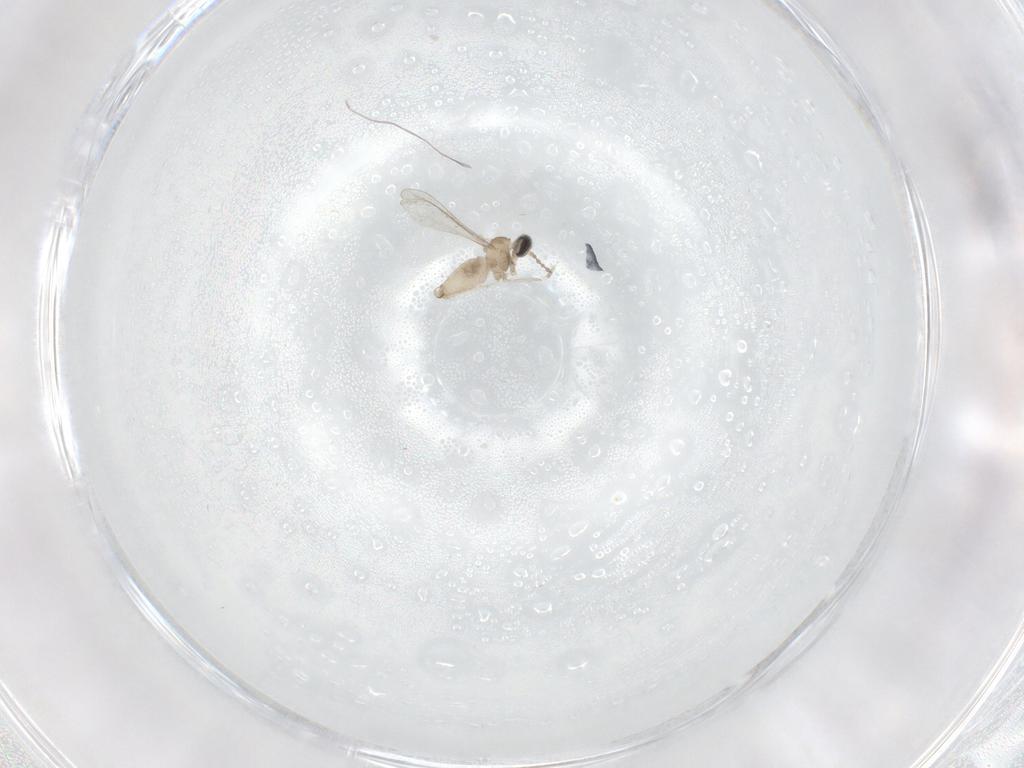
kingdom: Animalia
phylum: Arthropoda
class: Insecta
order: Diptera
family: Cecidomyiidae
